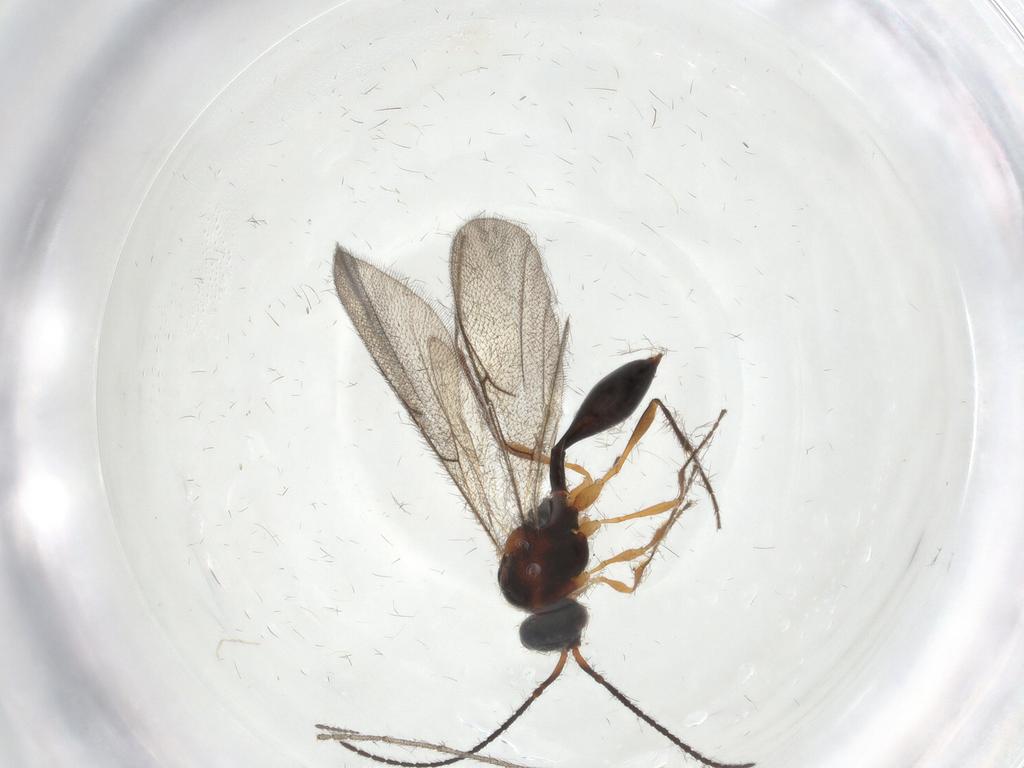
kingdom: Animalia
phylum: Arthropoda
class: Insecta
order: Hymenoptera
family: Diapriidae
